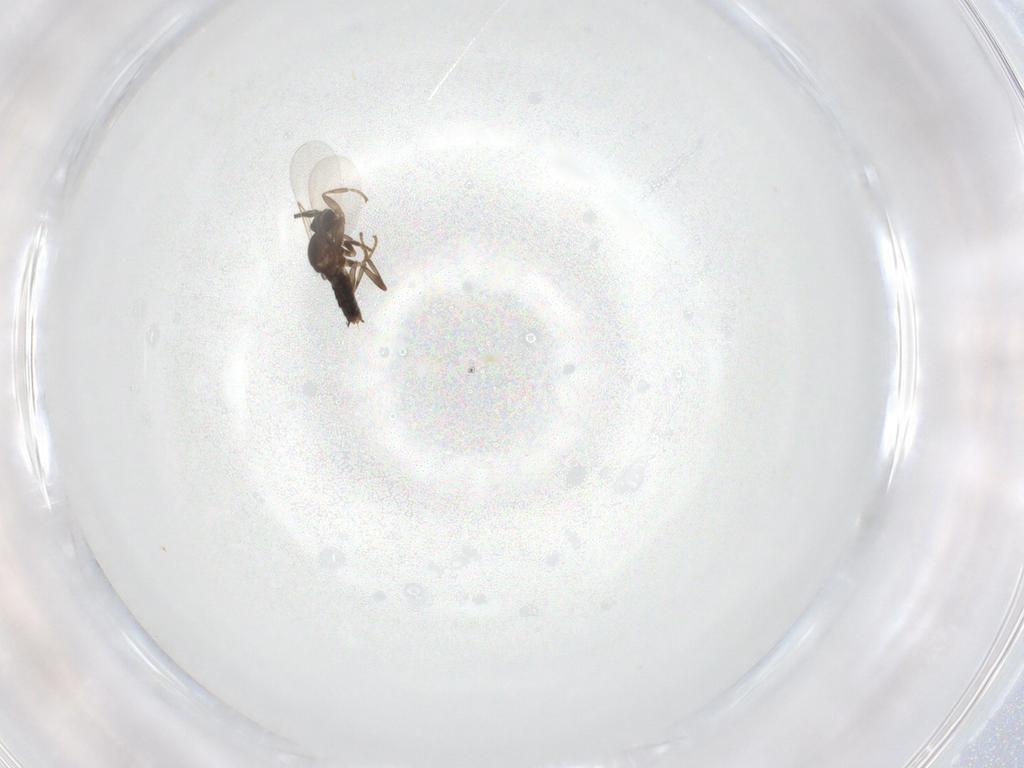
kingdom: Animalia
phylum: Arthropoda
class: Insecta
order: Diptera
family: Scatopsidae
